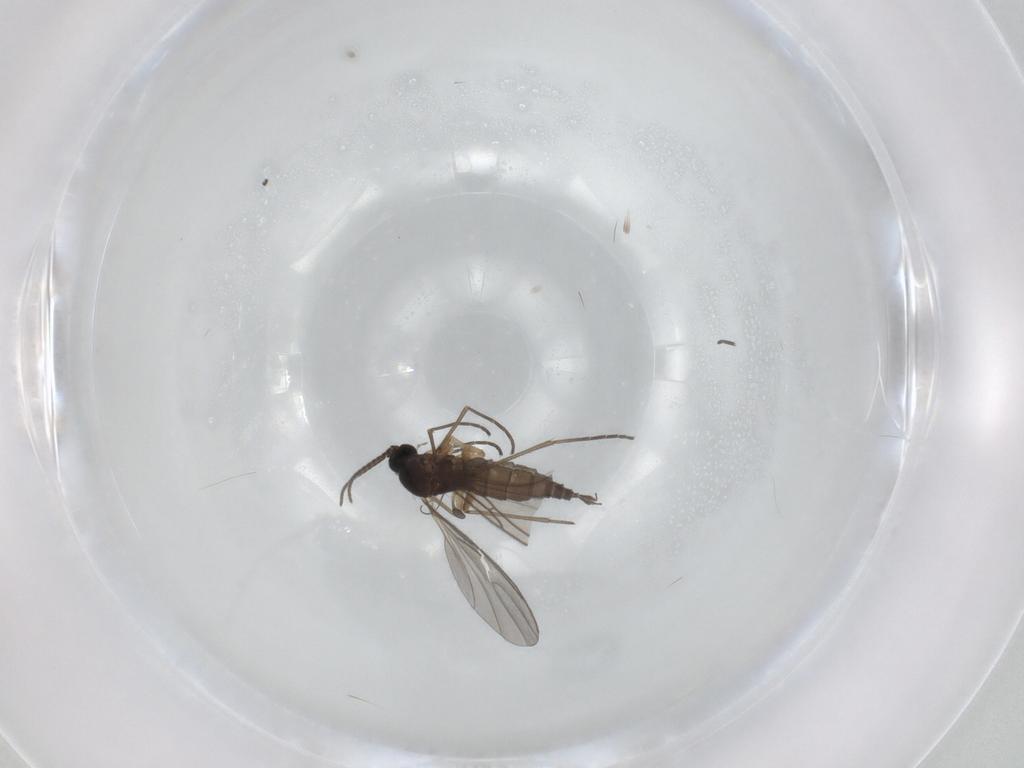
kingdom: Animalia
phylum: Arthropoda
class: Insecta
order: Diptera
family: Sciaridae
